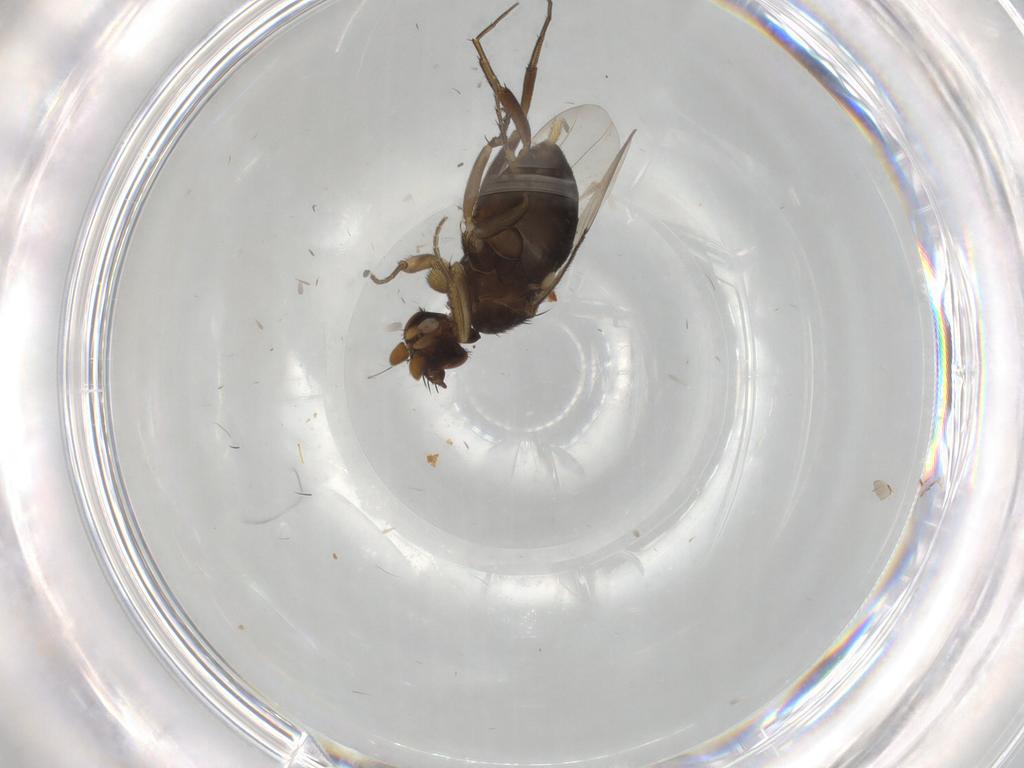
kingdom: Animalia
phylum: Arthropoda
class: Insecta
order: Diptera
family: Phoridae
